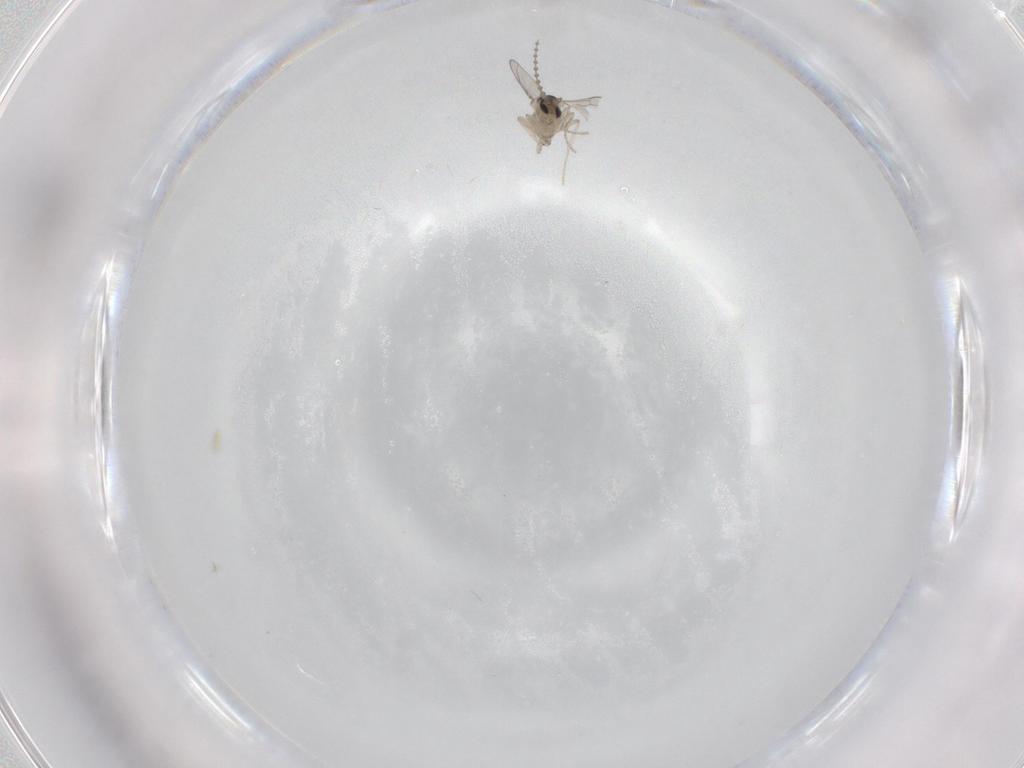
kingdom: Animalia
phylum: Arthropoda
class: Insecta
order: Diptera
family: Cecidomyiidae
